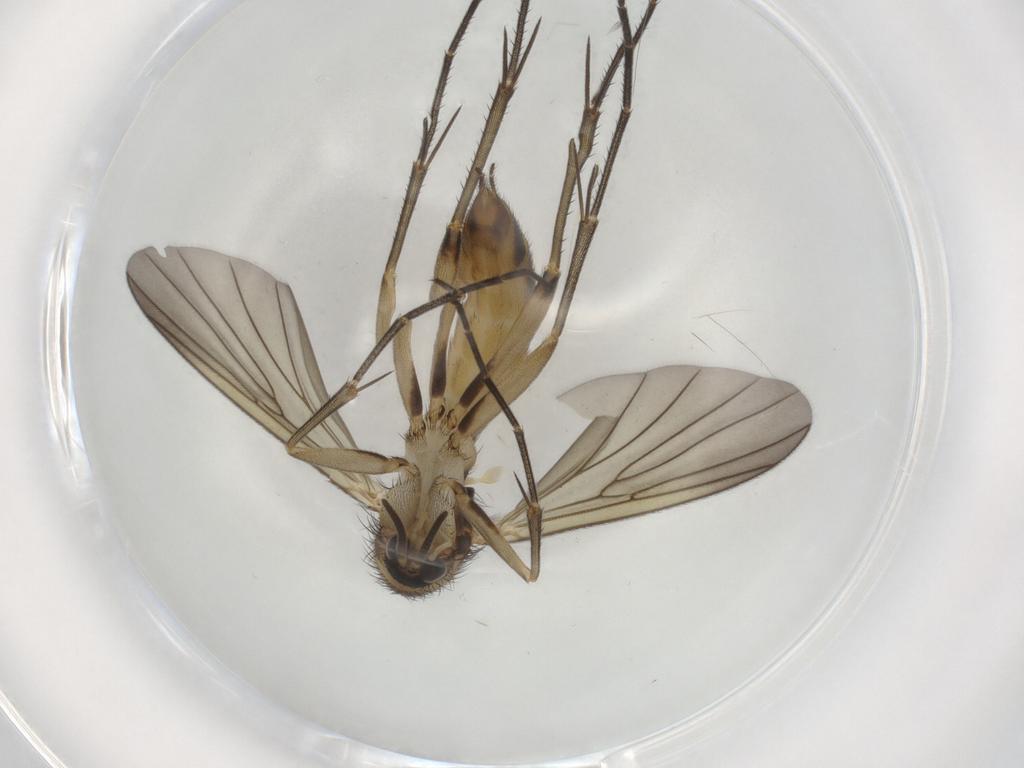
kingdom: Animalia
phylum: Arthropoda
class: Insecta
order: Diptera
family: Mycetophilidae
